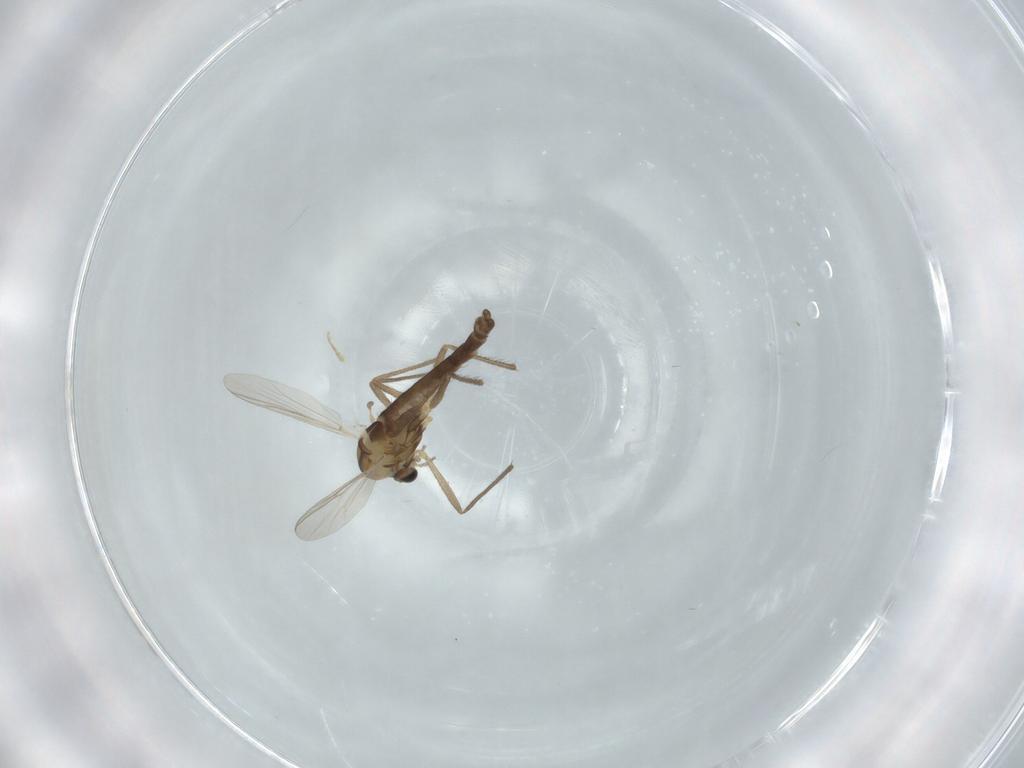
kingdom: Animalia
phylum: Arthropoda
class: Insecta
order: Diptera
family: Chironomidae
